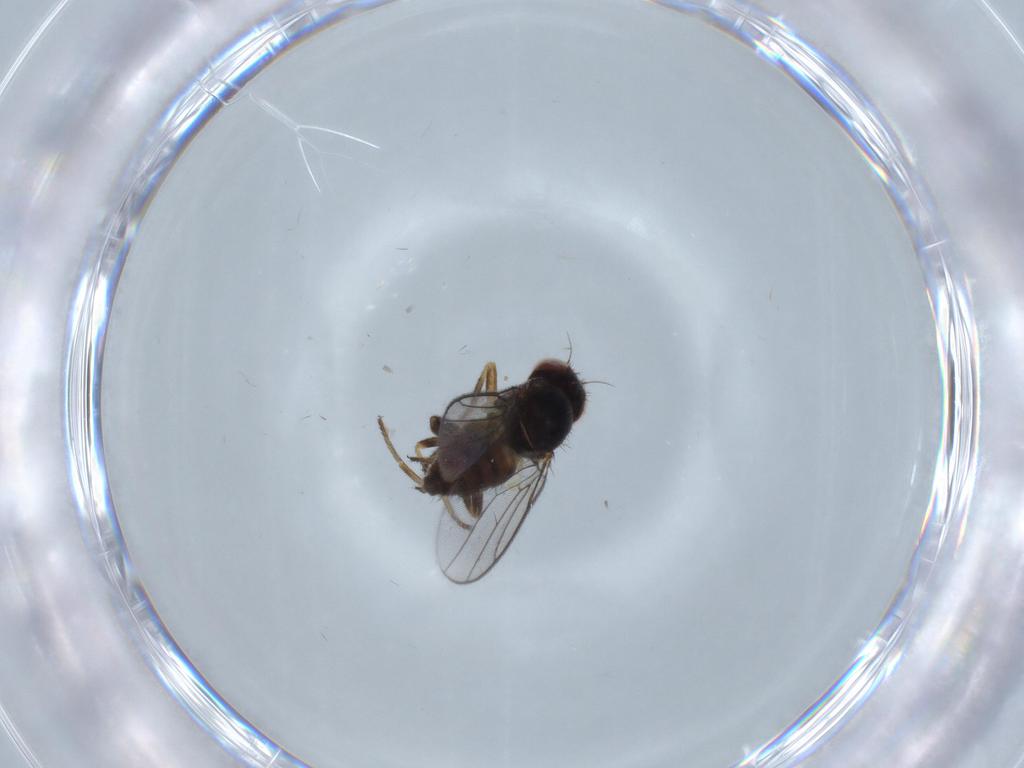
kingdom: Animalia
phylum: Arthropoda
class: Insecta
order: Diptera
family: Chloropidae
